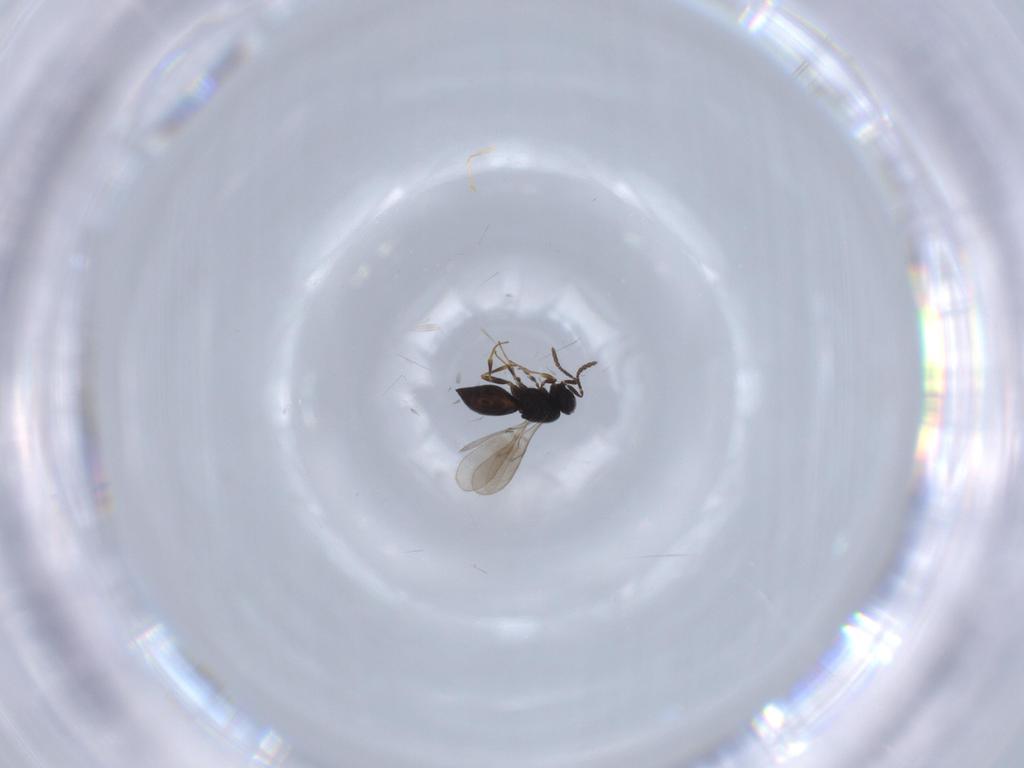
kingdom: Animalia
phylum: Arthropoda
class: Insecta
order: Hymenoptera
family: Scelionidae
